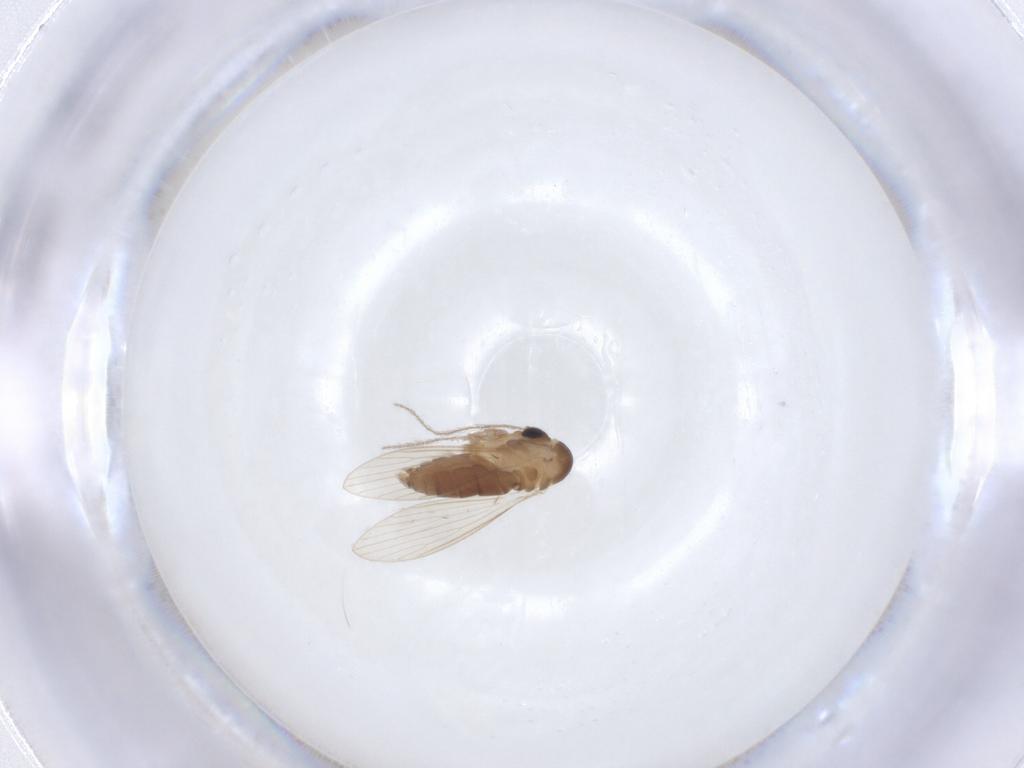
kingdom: Animalia
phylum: Arthropoda
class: Insecta
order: Diptera
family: Psychodidae
